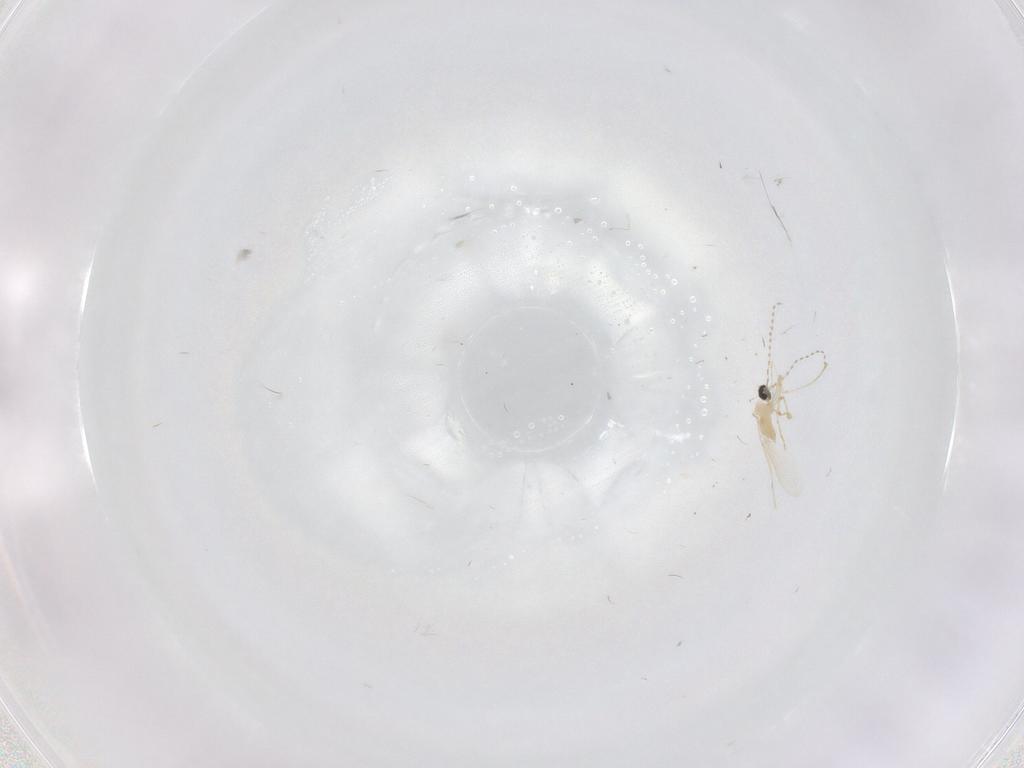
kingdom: Animalia
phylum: Arthropoda
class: Insecta
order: Diptera
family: Cecidomyiidae
